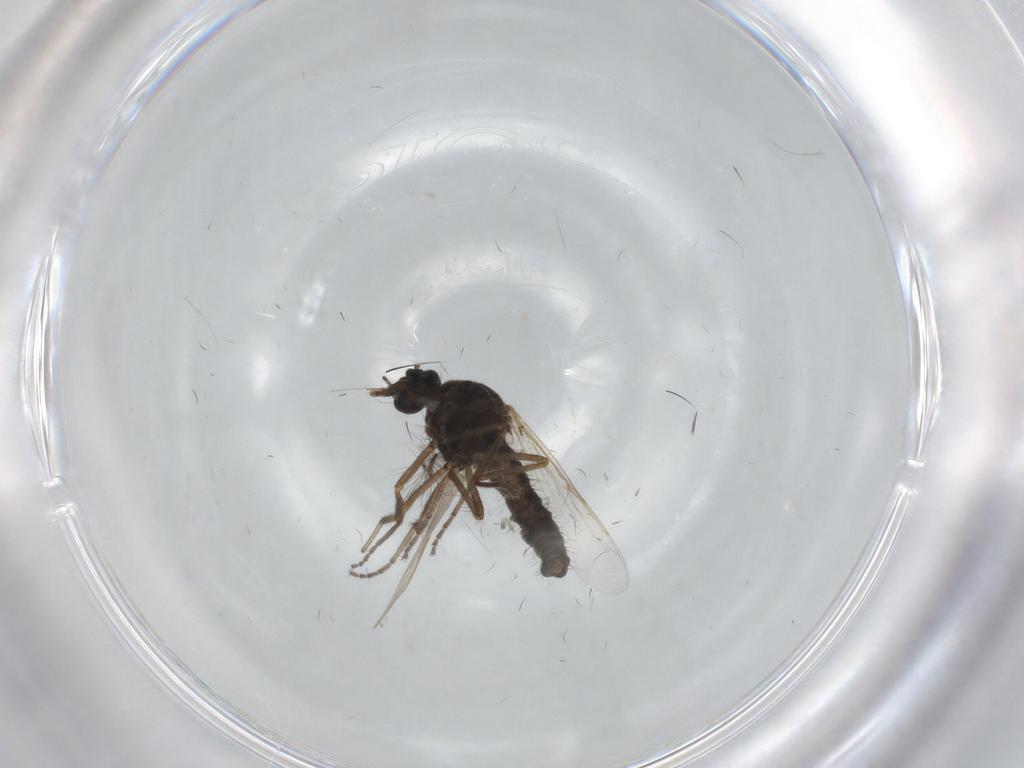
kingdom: Animalia
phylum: Arthropoda
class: Insecta
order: Diptera
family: Ceratopogonidae
